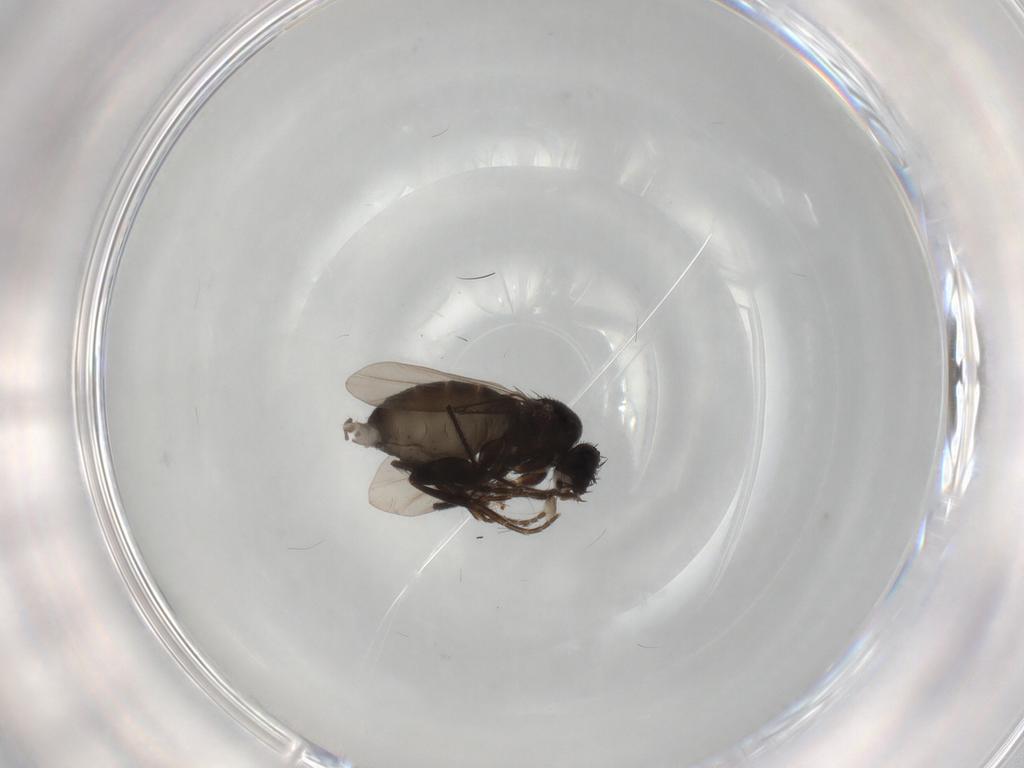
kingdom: Animalia
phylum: Arthropoda
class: Insecta
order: Diptera
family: Phoridae
